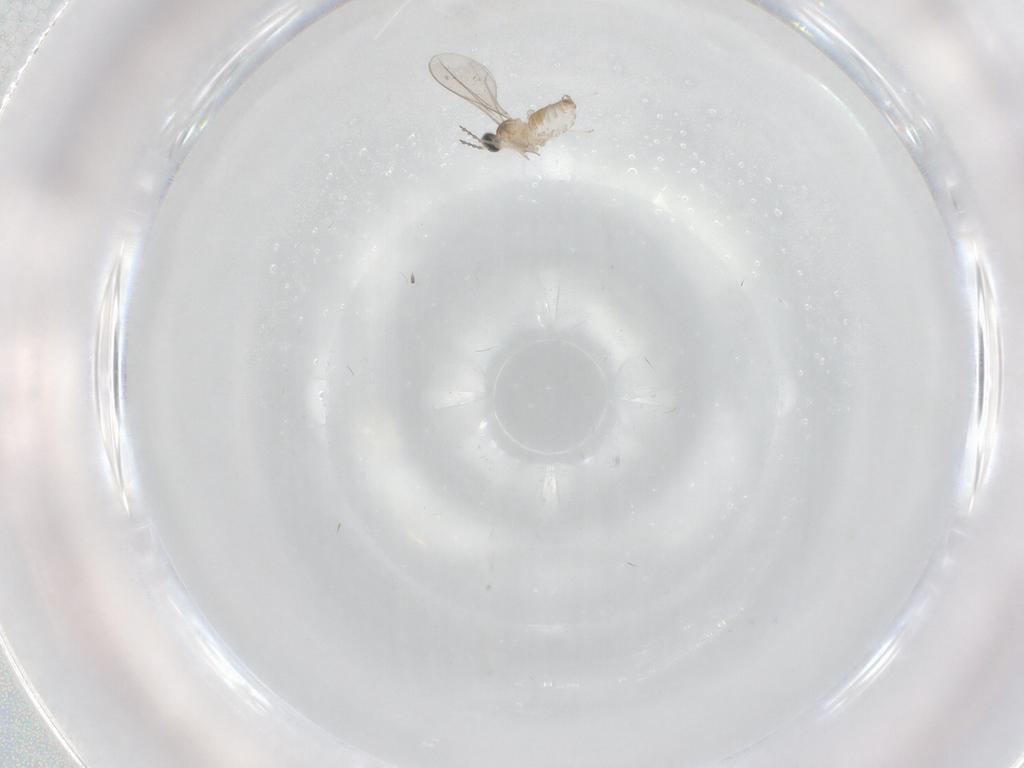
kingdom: Animalia
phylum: Arthropoda
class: Insecta
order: Diptera
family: Cecidomyiidae
